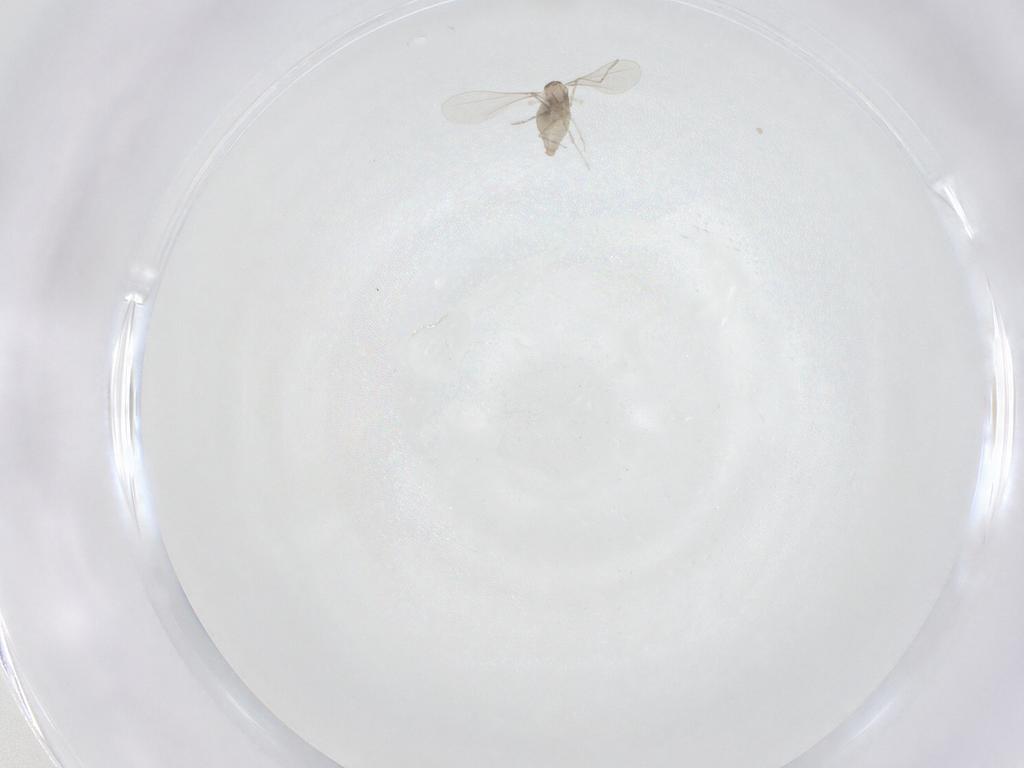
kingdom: Animalia
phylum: Arthropoda
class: Insecta
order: Diptera
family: Cecidomyiidae
